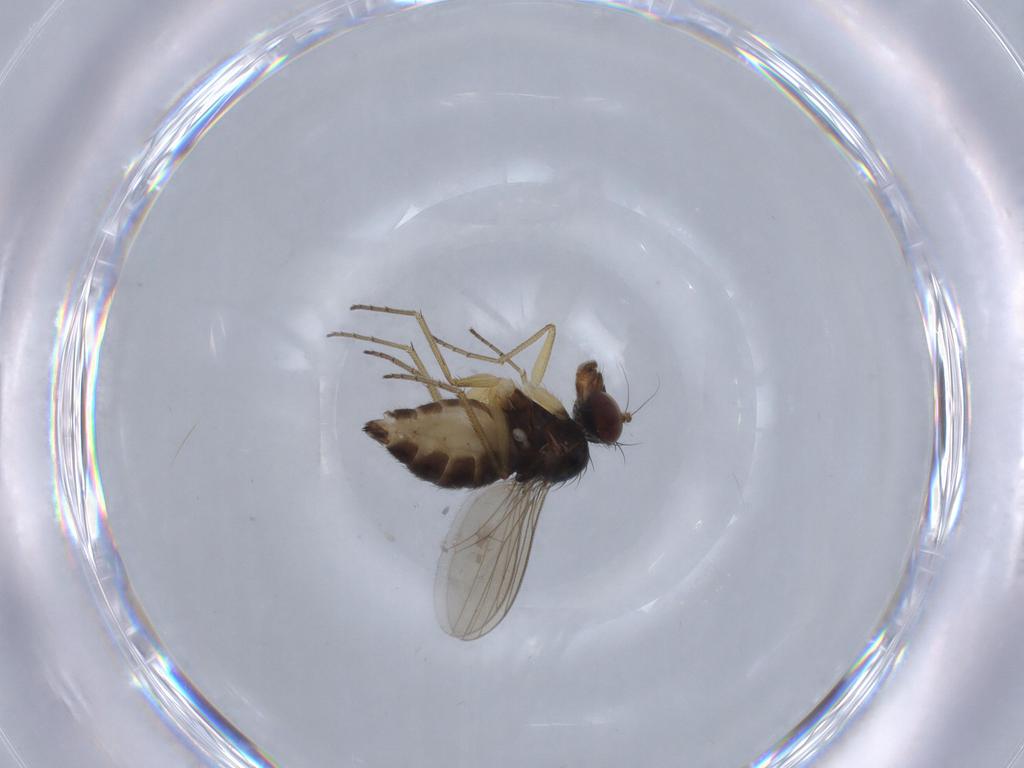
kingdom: Animalia
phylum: Arthropoda
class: Insecta
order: Diptera
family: Dolichopodidae
